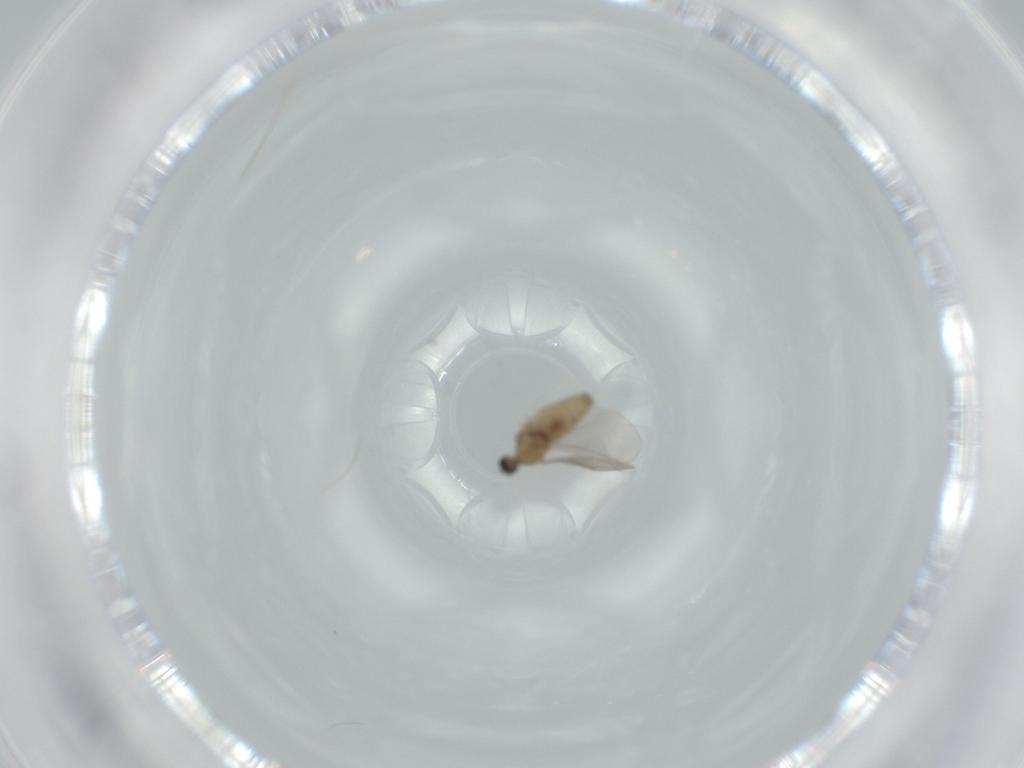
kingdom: Animalia
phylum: Arthropoda
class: Insecta
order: Diptera
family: Cecidomyiidae
